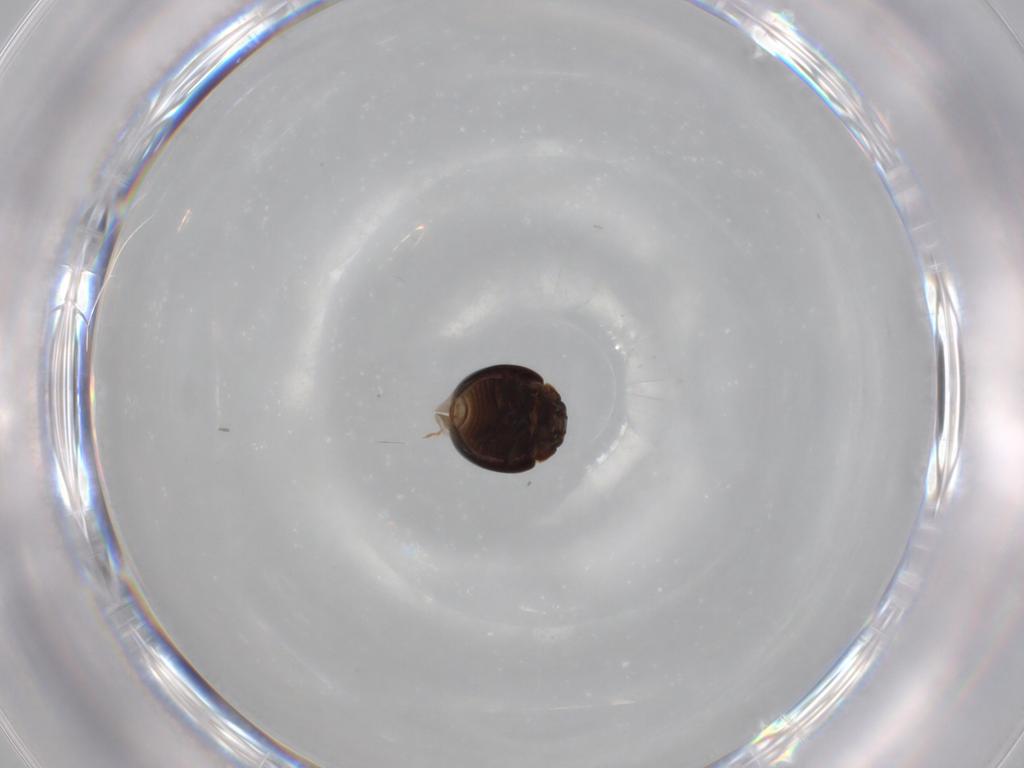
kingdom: Animalia
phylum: Arthropoda
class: Insecta
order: Coleoptera
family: Anamorphidae
